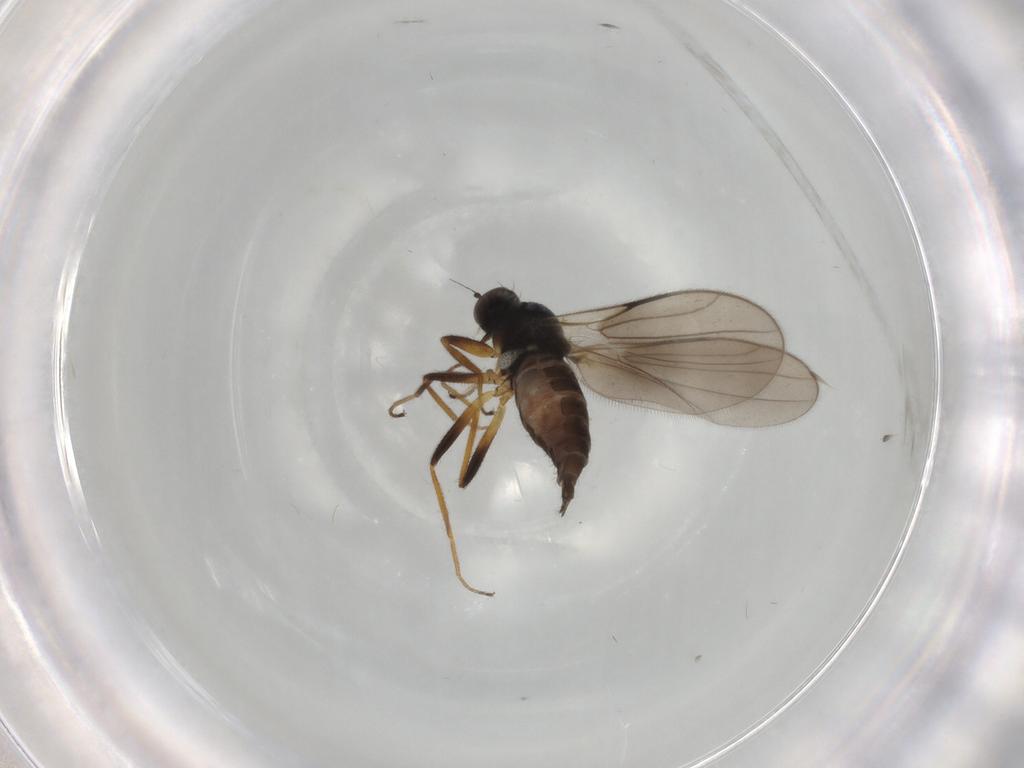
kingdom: Animalia
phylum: Arthropoda
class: Insecta
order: Diptera
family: Hybotidae
